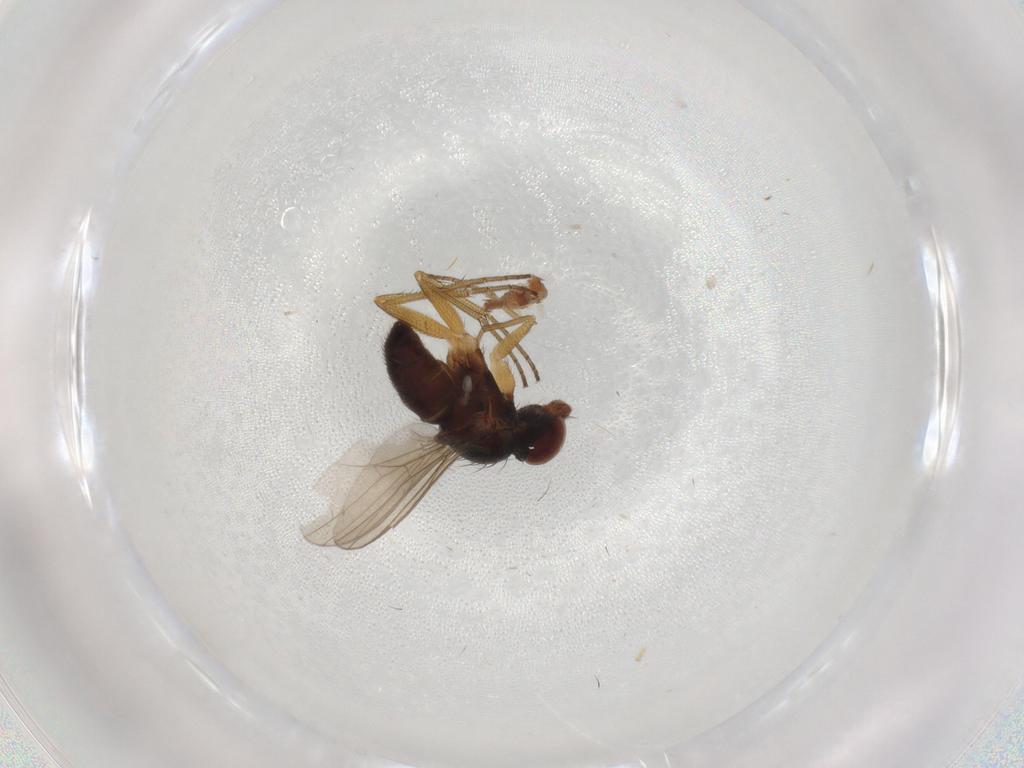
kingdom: Animalia
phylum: Arthropoda
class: Insecta
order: Diptera
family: Dolichopodidae
